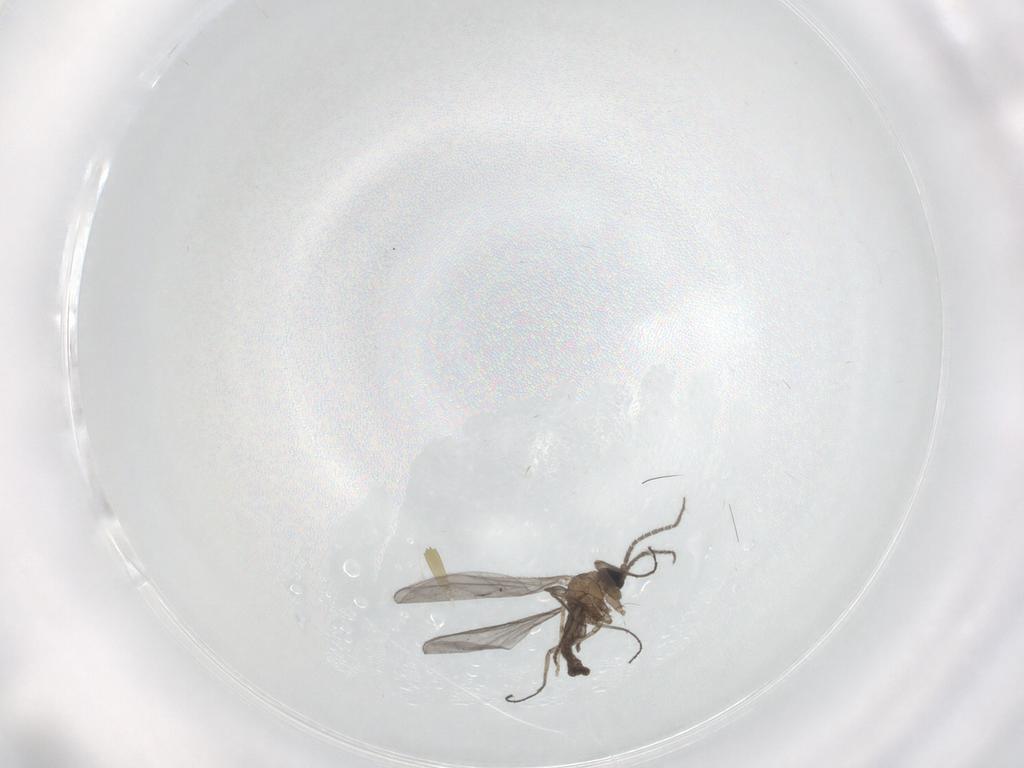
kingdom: Animalia
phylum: Arthropoda
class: Insecta
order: Diptera
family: Sciaridae
